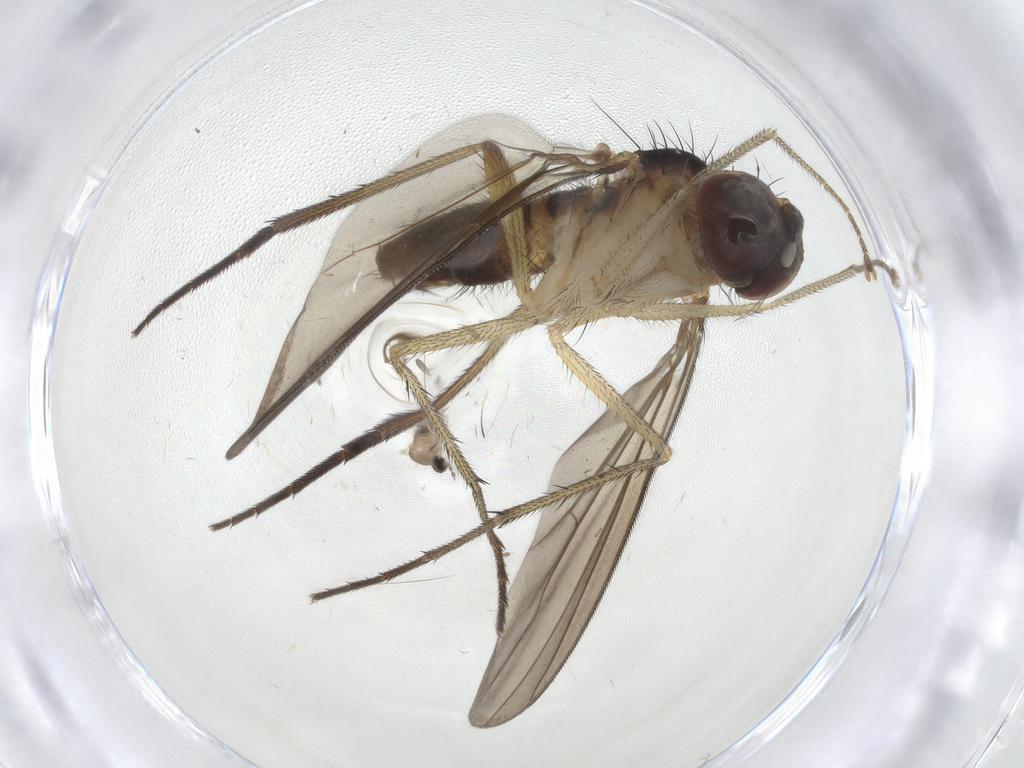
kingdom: Animalia
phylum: Arthropoda
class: Insecta
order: Diptera
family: Dolichopodidae
